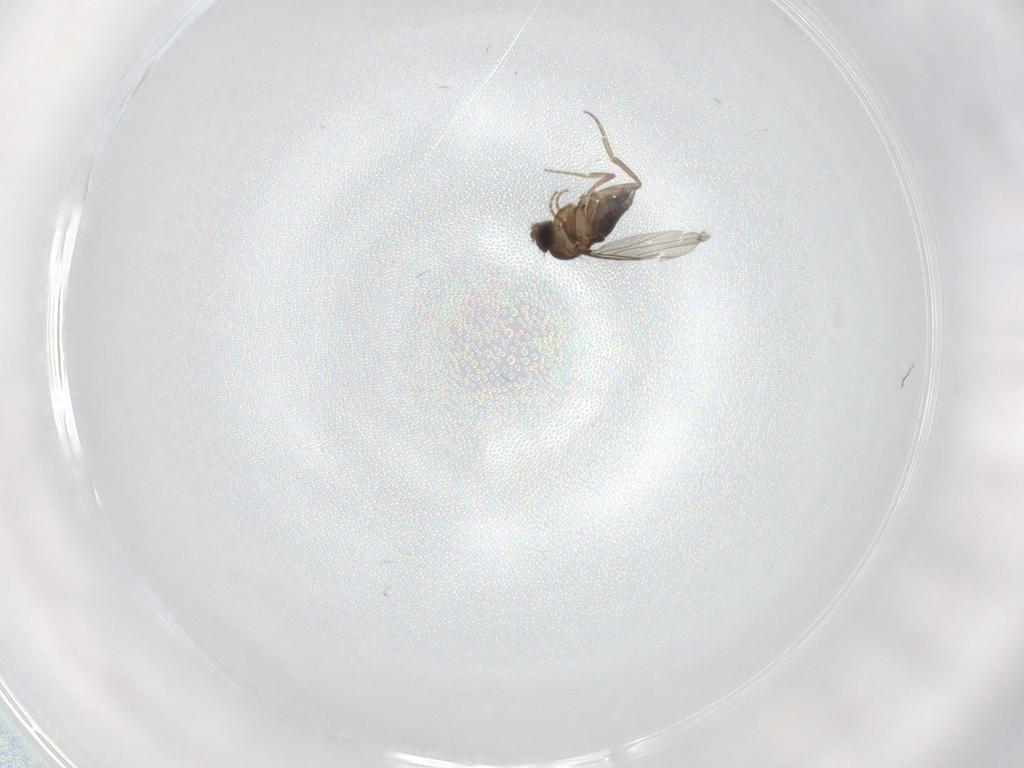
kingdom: Animalia
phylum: Arthropoda
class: Insecta
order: Diptera
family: Phoridae
